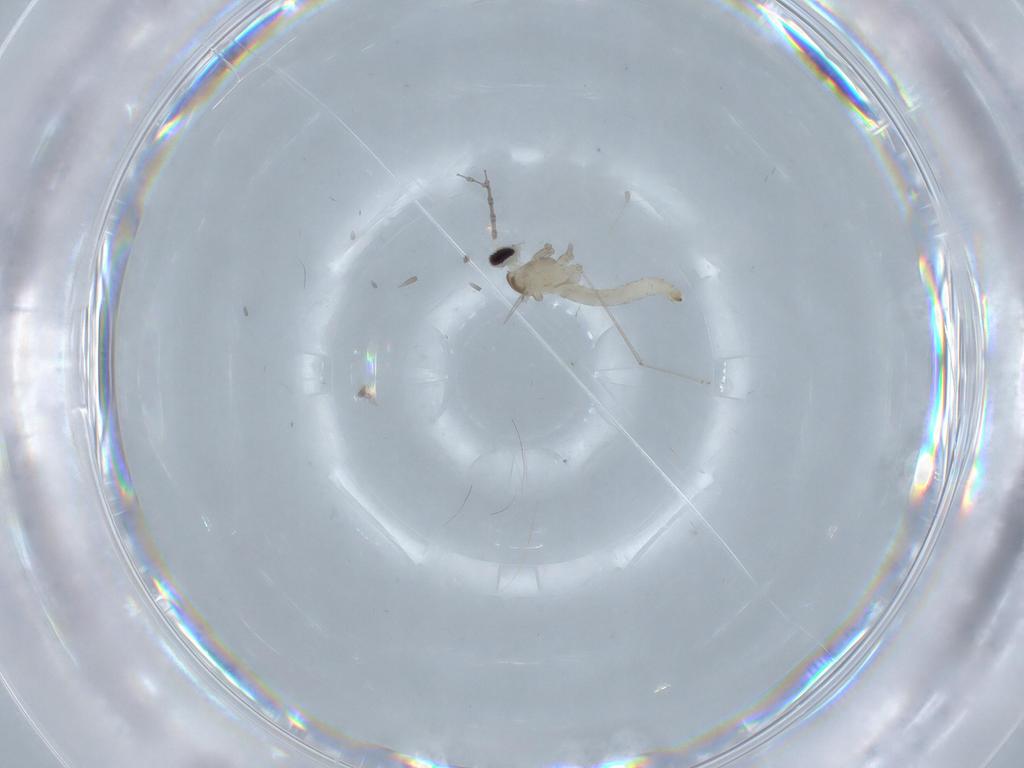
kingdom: Animalia
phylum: Arthropoda
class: Insecta
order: Diptera
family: Cecidomyiidae
